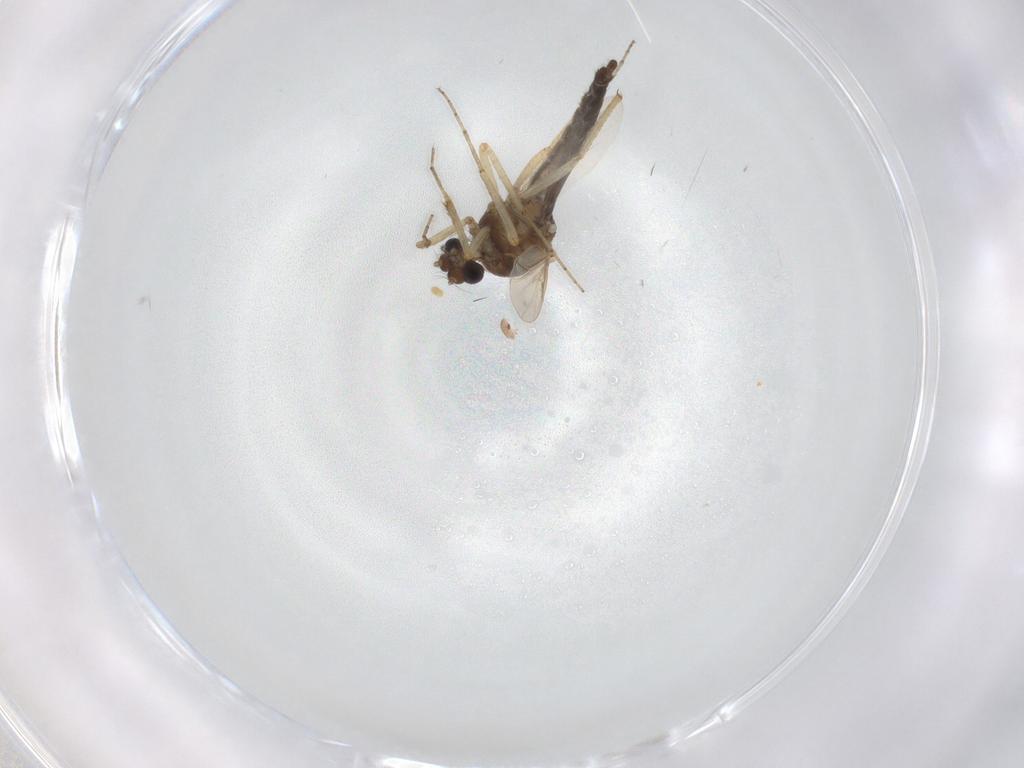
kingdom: Animalia
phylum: Arthropoda
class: Insecta
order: Diptera
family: Ceratopogonidae
